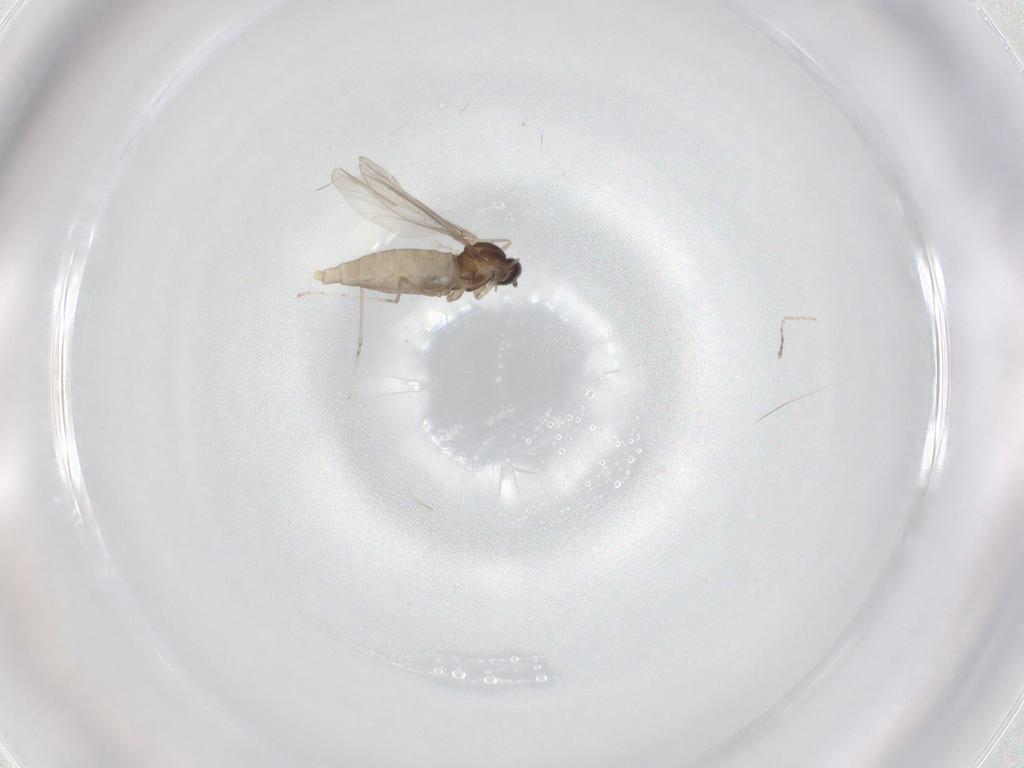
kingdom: Animalia
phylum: Arthropoda
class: Insecta
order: Diptera
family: Cecidomyiidae
